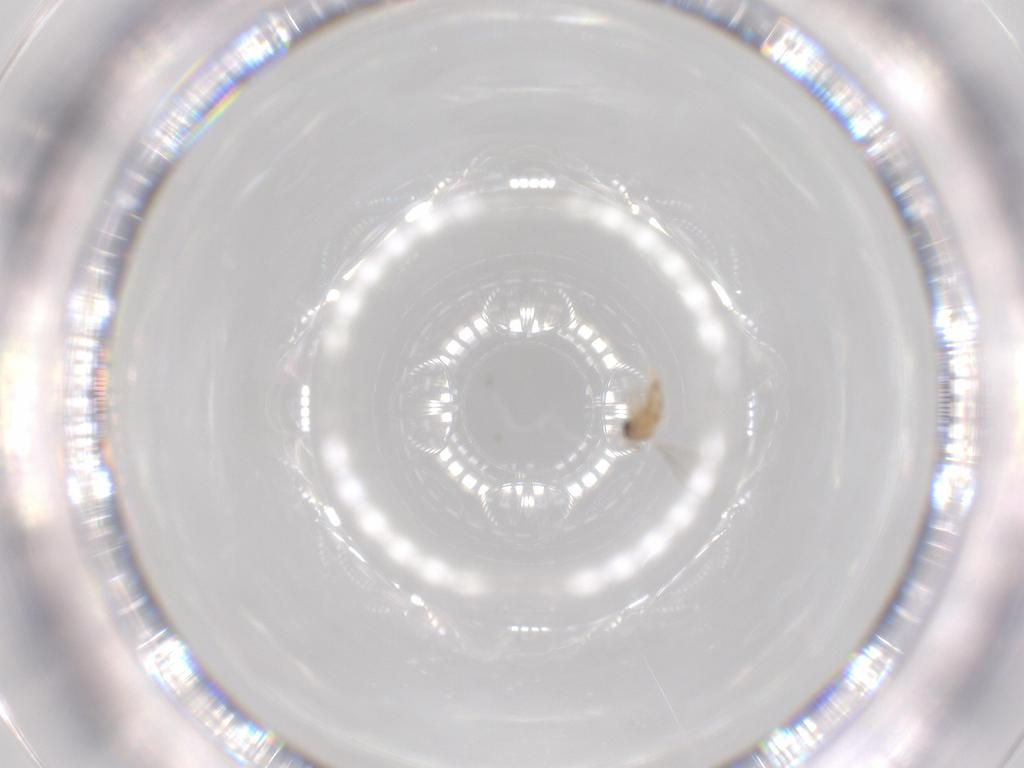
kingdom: Animalia
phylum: Arthropoda
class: Insecta
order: Diptera
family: Cecidomyiidae
